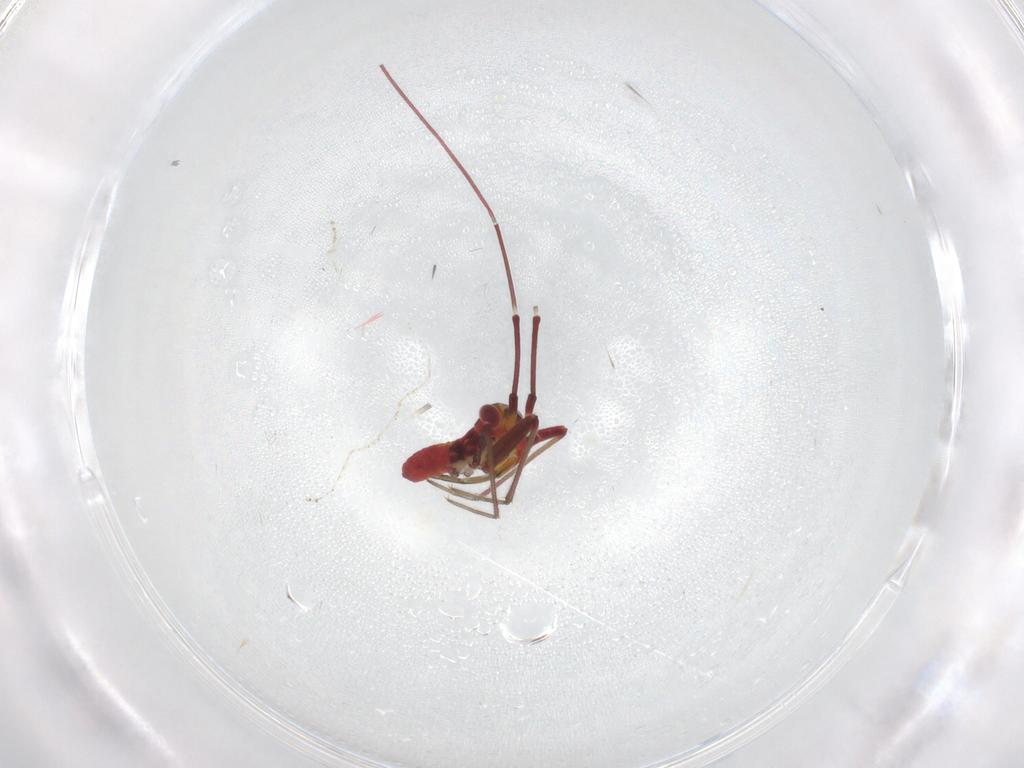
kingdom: Animalia
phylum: Arthropoda
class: Insecta
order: Hemiptera
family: Miridae
